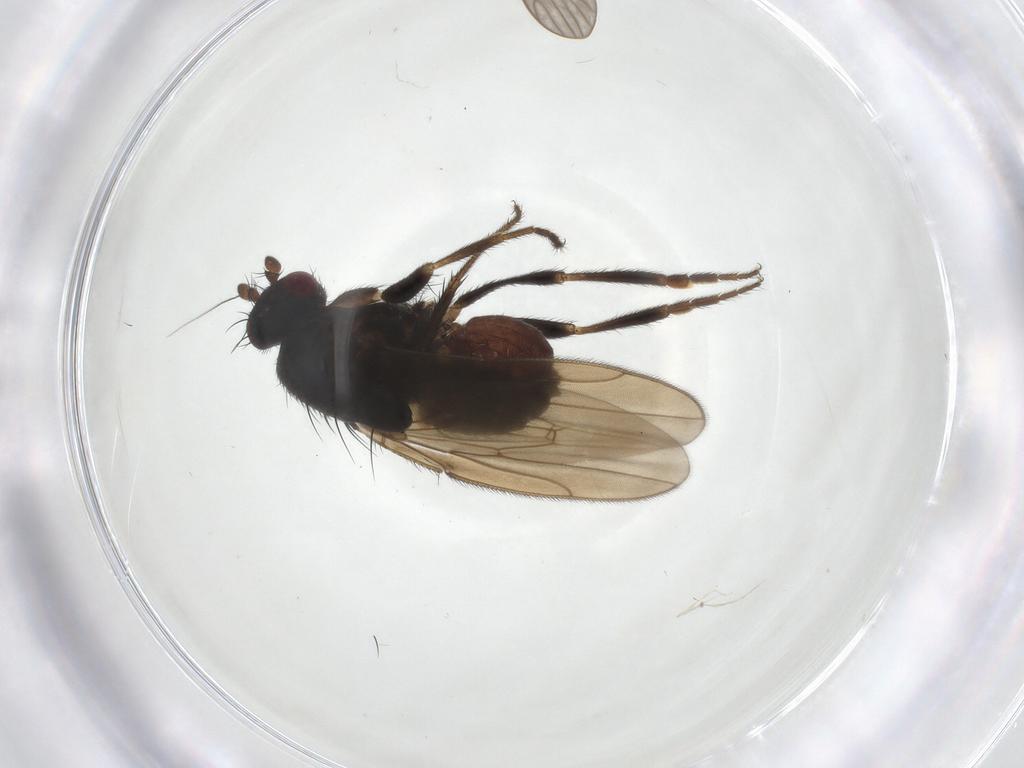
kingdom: Animalia
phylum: Arthropoda
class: Insecta
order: Diptera
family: Sphaeroceridae
